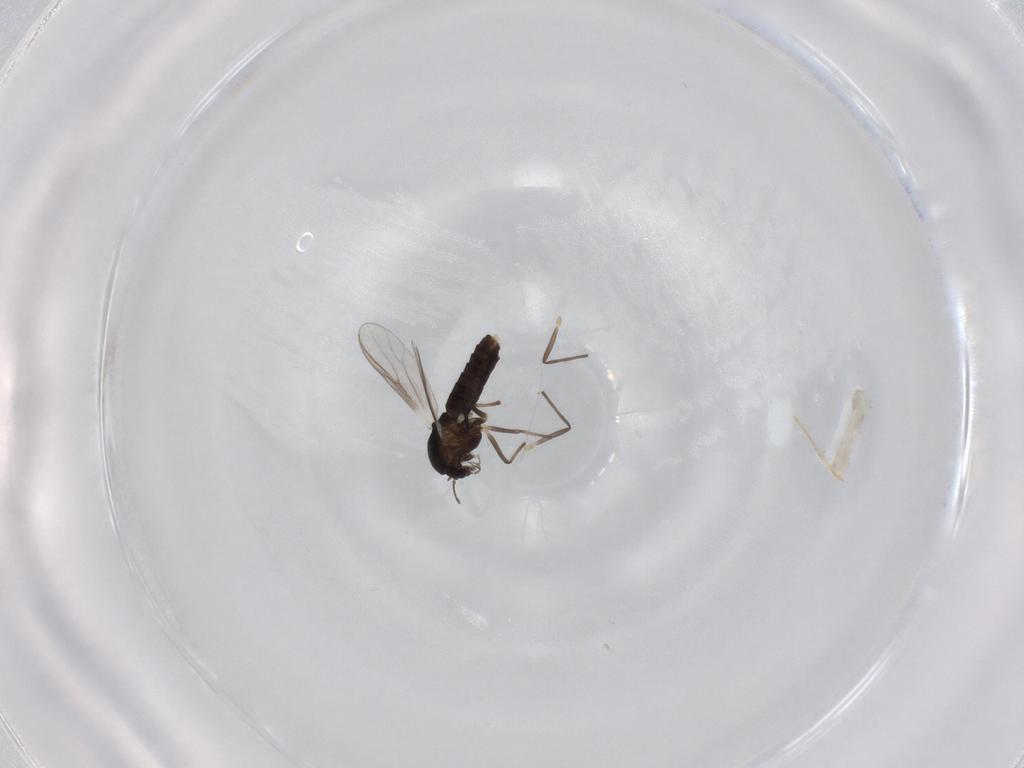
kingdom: Animalia
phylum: Arthropoda
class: Insecta
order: Diptera
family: Chironomidae
